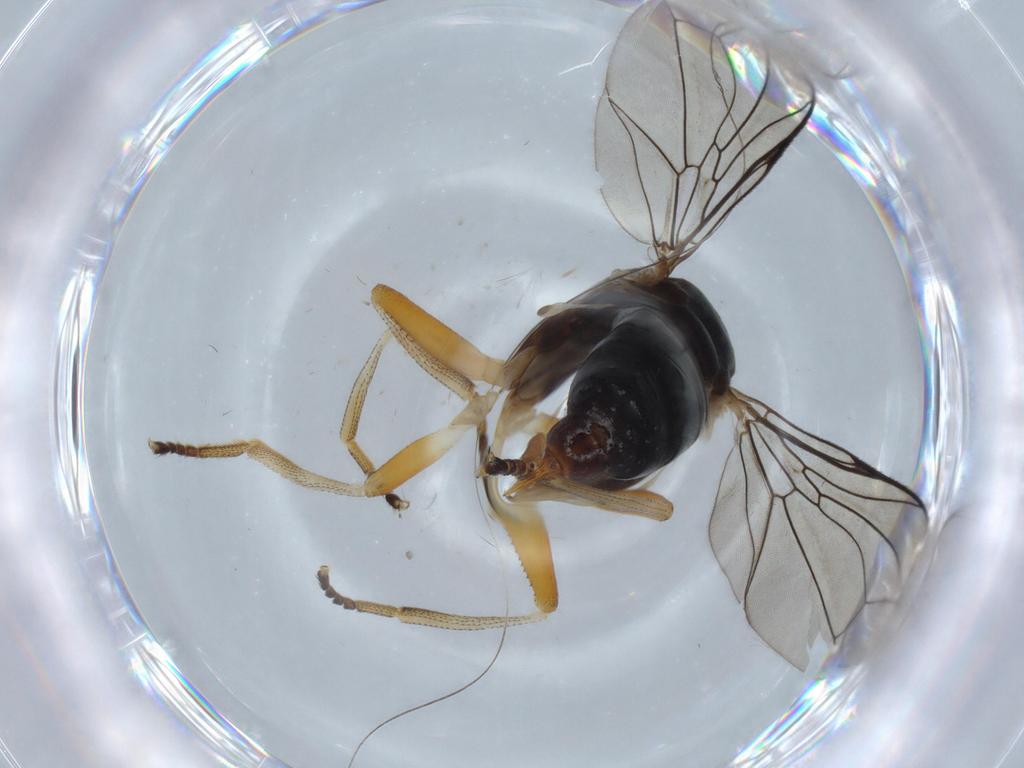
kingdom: Animalia
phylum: Arthropoda
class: Insecta
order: Diptera
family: Pipunculidae
